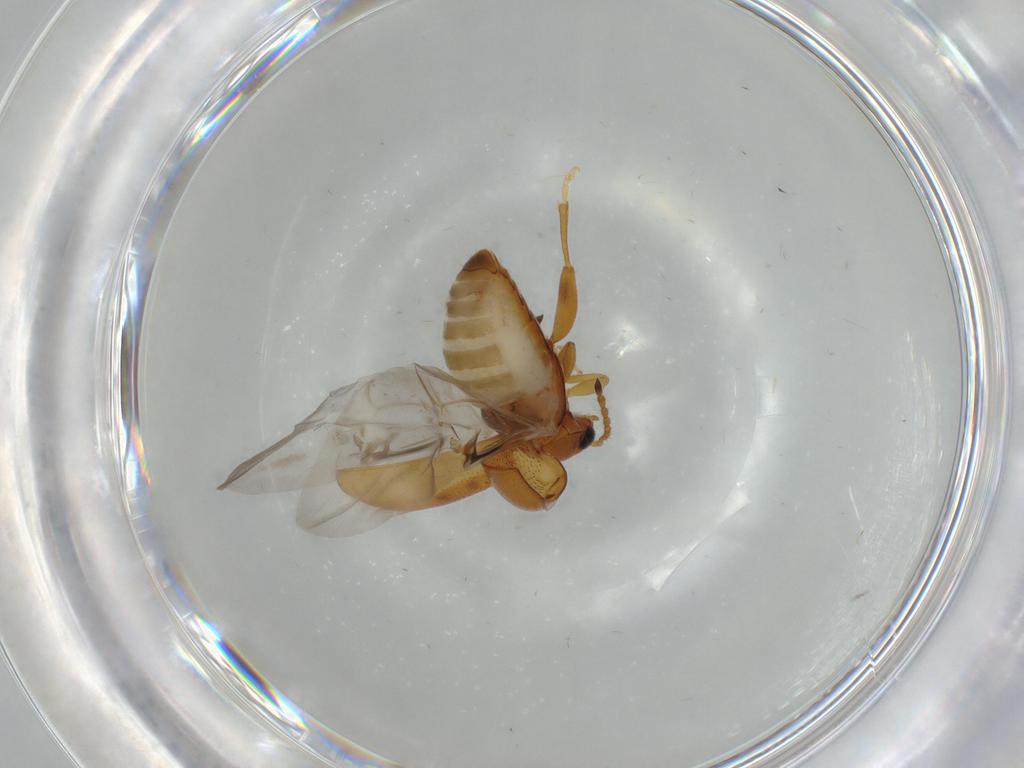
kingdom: Animalia
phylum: Arthropoda
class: Insecta
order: Coleoptera
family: Chrysomelidae
